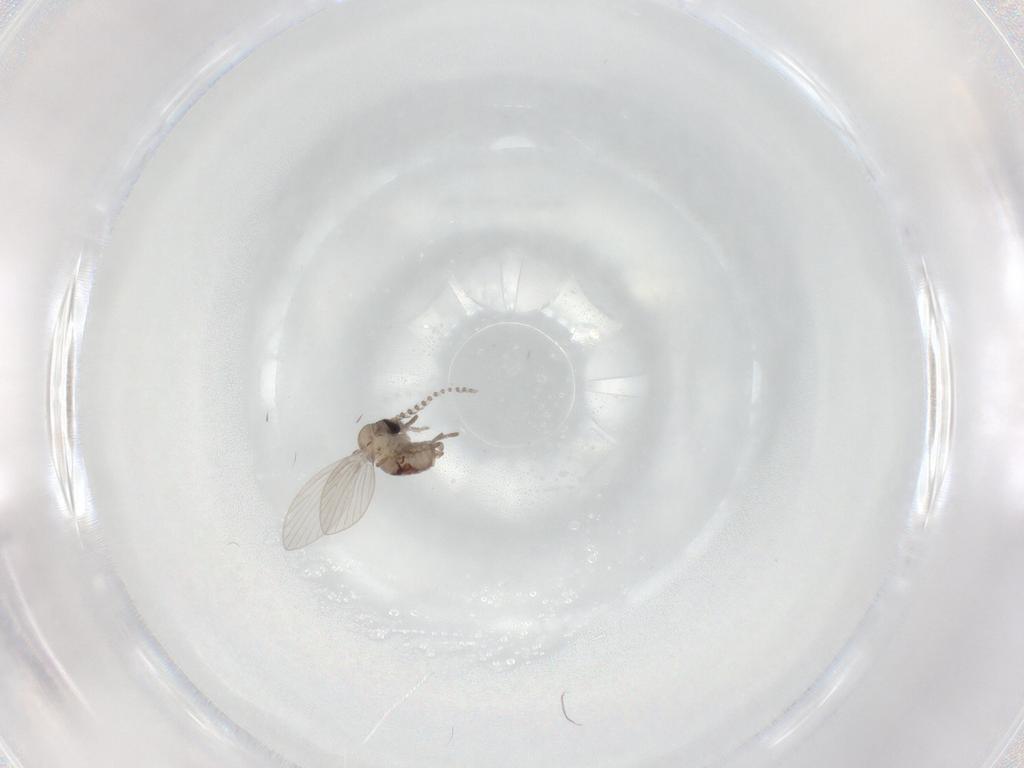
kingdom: Animalia
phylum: Arthropoda
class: Insecta
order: Diptera
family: Psychodidae
